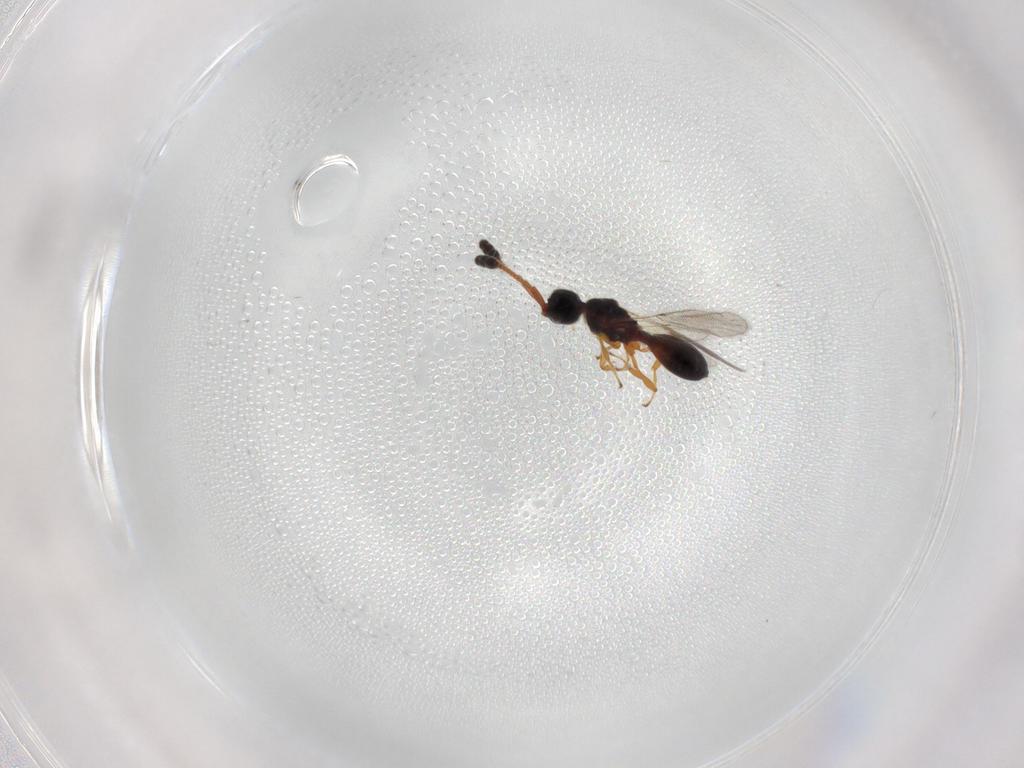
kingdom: Animalia
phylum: Arthropoda
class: Insecta
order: Hymenoptera
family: Diapriidae
